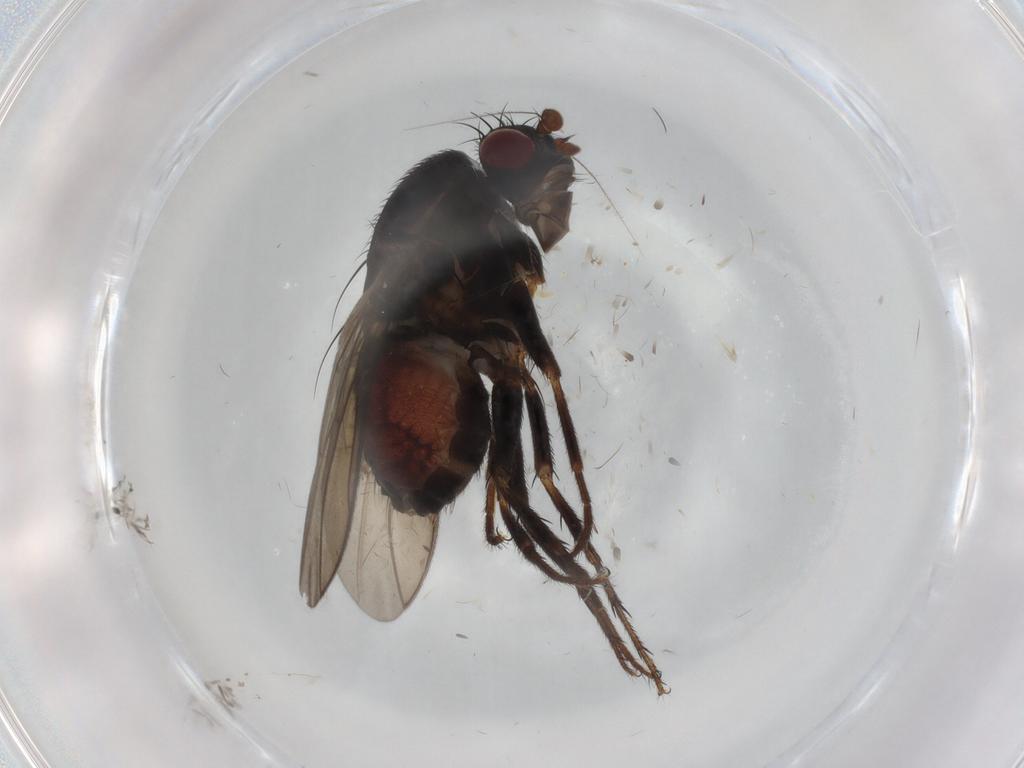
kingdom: Animalia
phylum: Arthropoda
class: Insecta
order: Diptera
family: Sphaeroceridae
